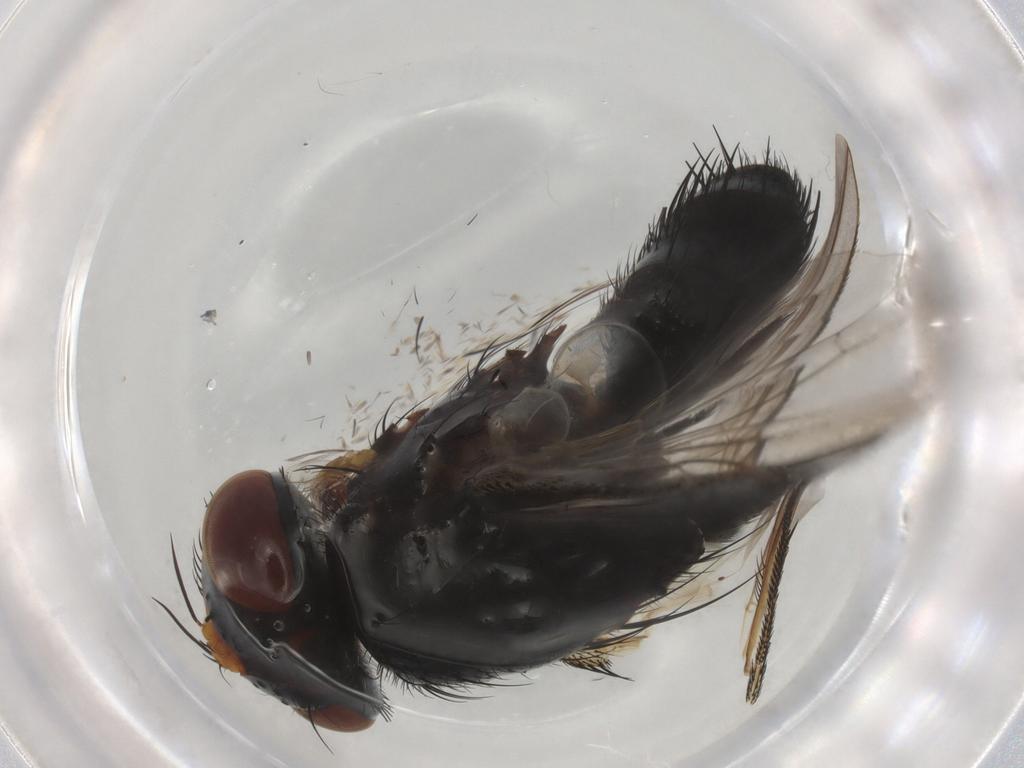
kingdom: Animalia
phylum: Arthropoda
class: Insecta
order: Diptera
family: Tachinidae
